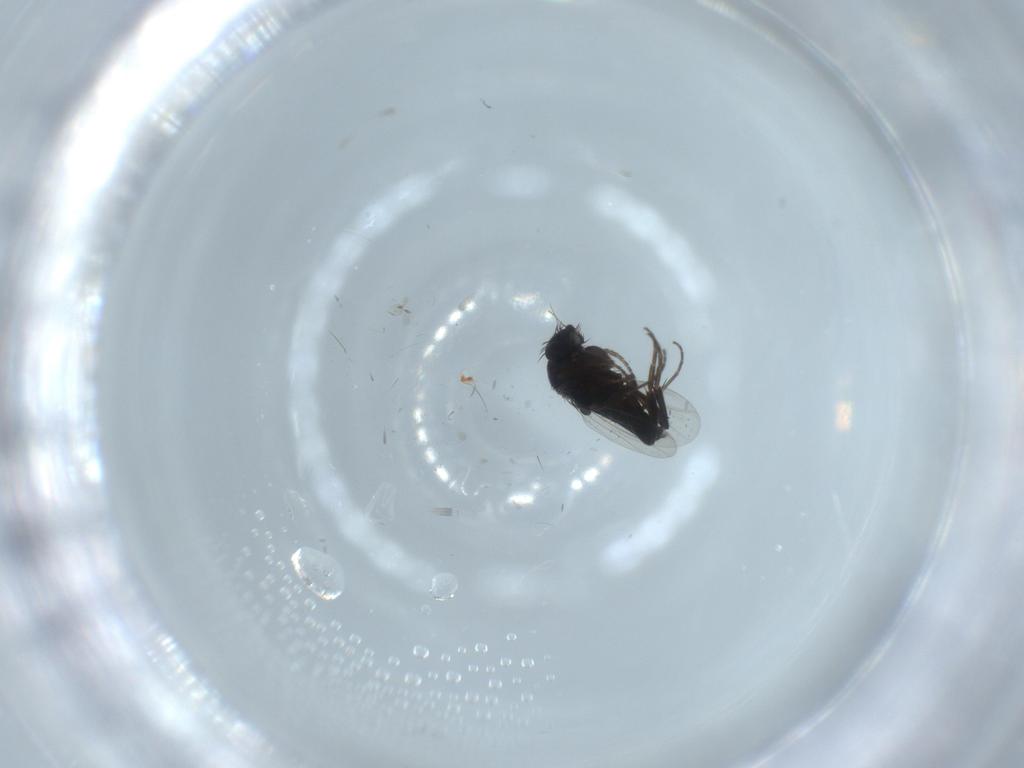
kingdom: Animalia
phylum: Arthropoda
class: Insecta
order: Diptera
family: Phoridae
